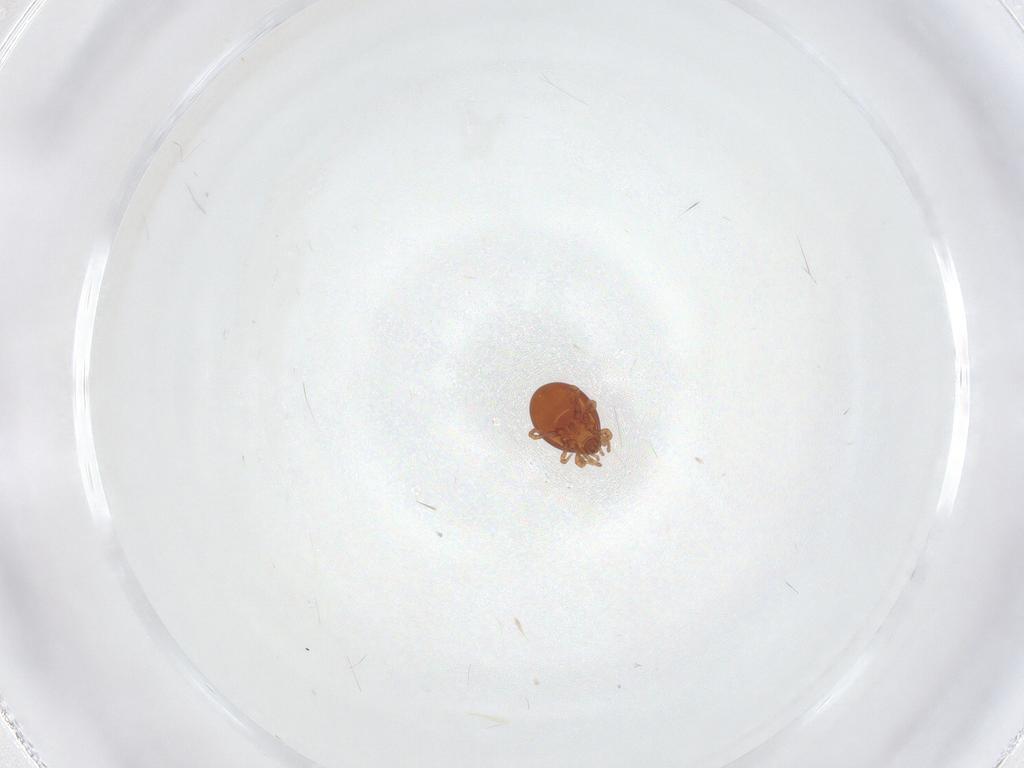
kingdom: Animalia
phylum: Arthropoda
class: Arachnida
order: Mesostigmata
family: Parasitidae
